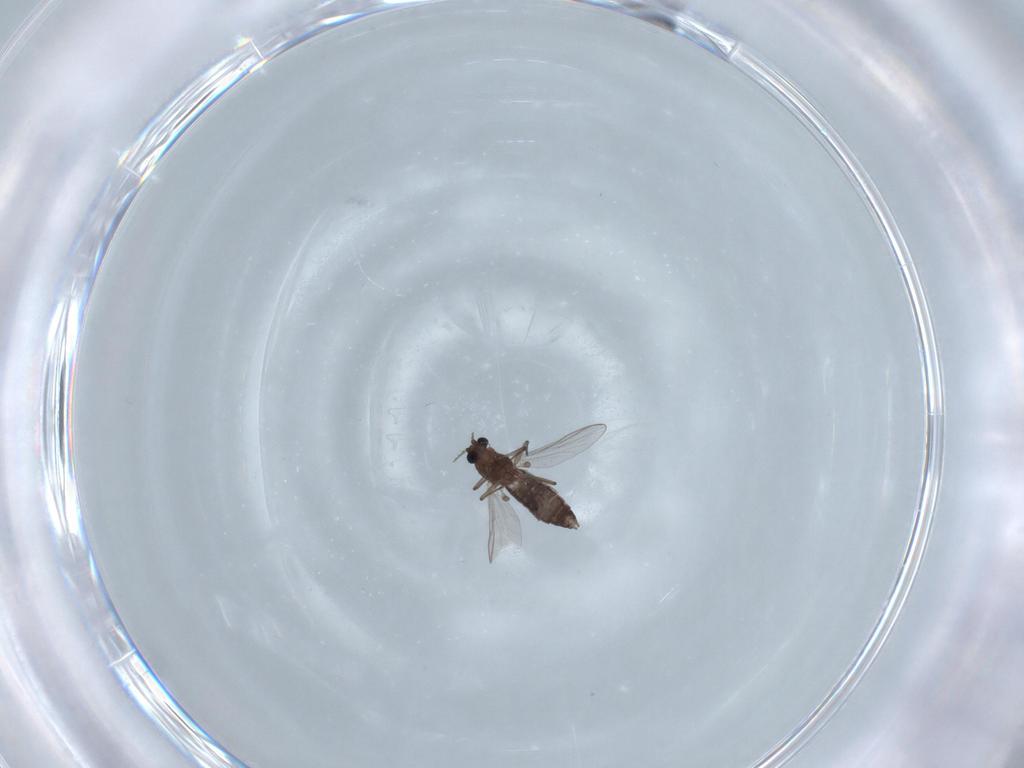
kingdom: Animalia
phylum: Arthropoda
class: Insecta
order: Diptera
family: Chironomidae
